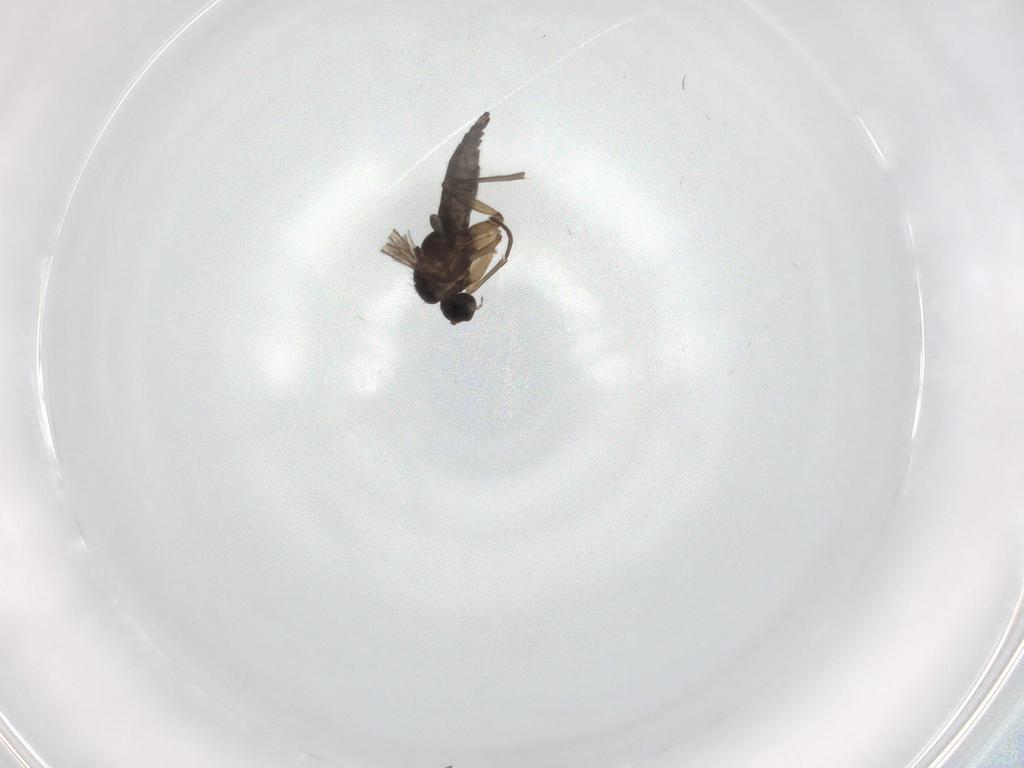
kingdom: Animalia
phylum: Arthropoda
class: Insecta
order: Diptera
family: Sciaridae
